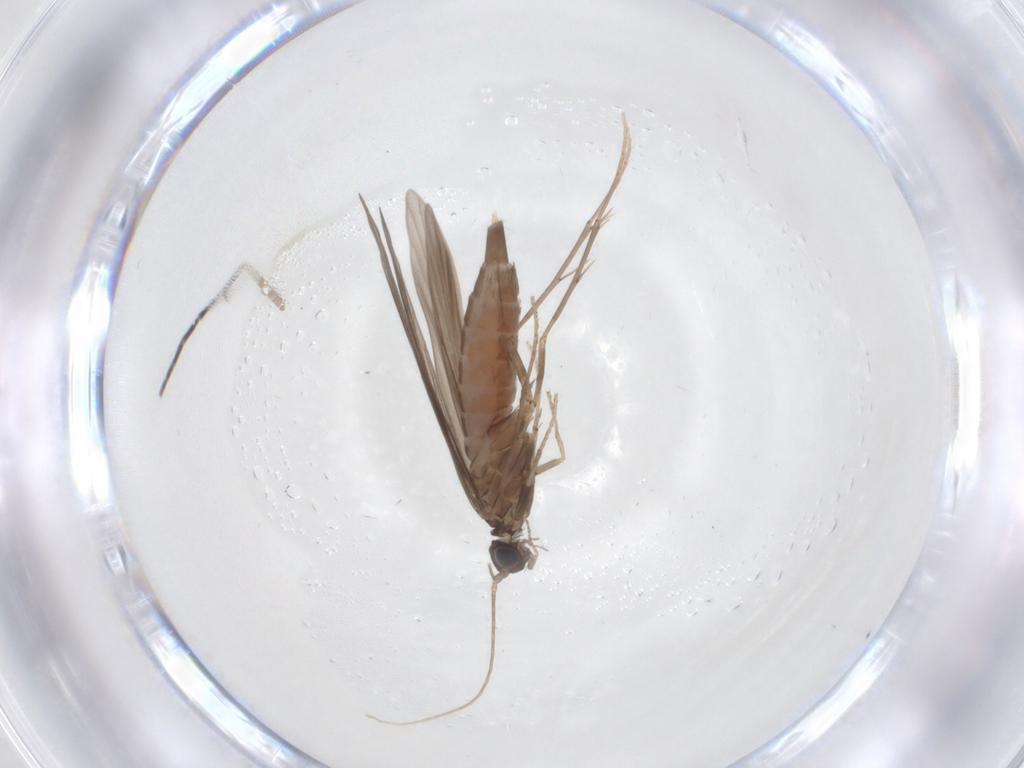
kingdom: Animalia
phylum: Arthropoda
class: Insecta
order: Trichoptera
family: Xiphocentronidae
